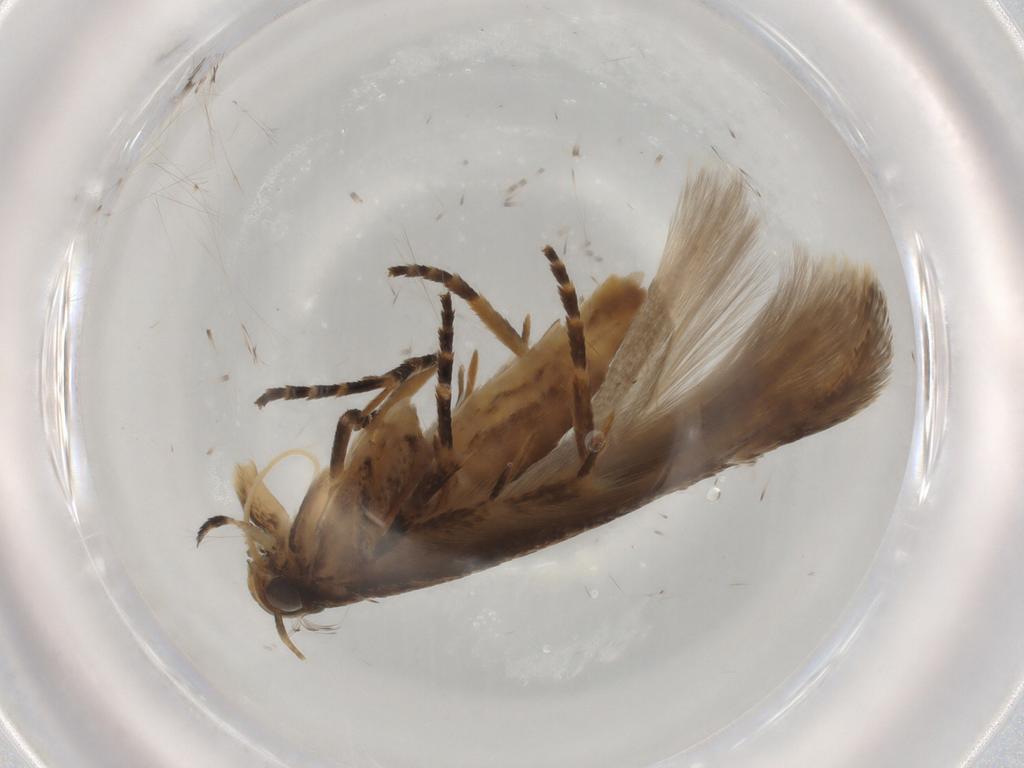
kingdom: Animalia
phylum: Arthropoda
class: Insecta
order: Lepidoptera
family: Gelechiidae
